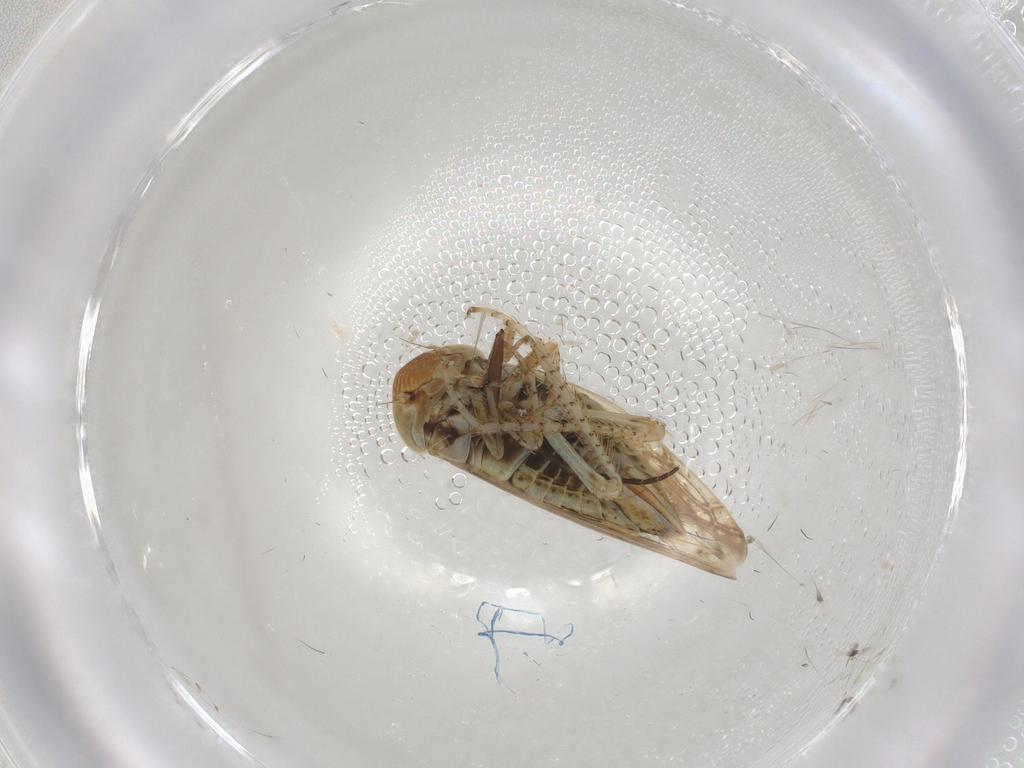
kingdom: Animalia
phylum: Arthropoda
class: Insecta
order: Hemiptera
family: Cicadellidae
